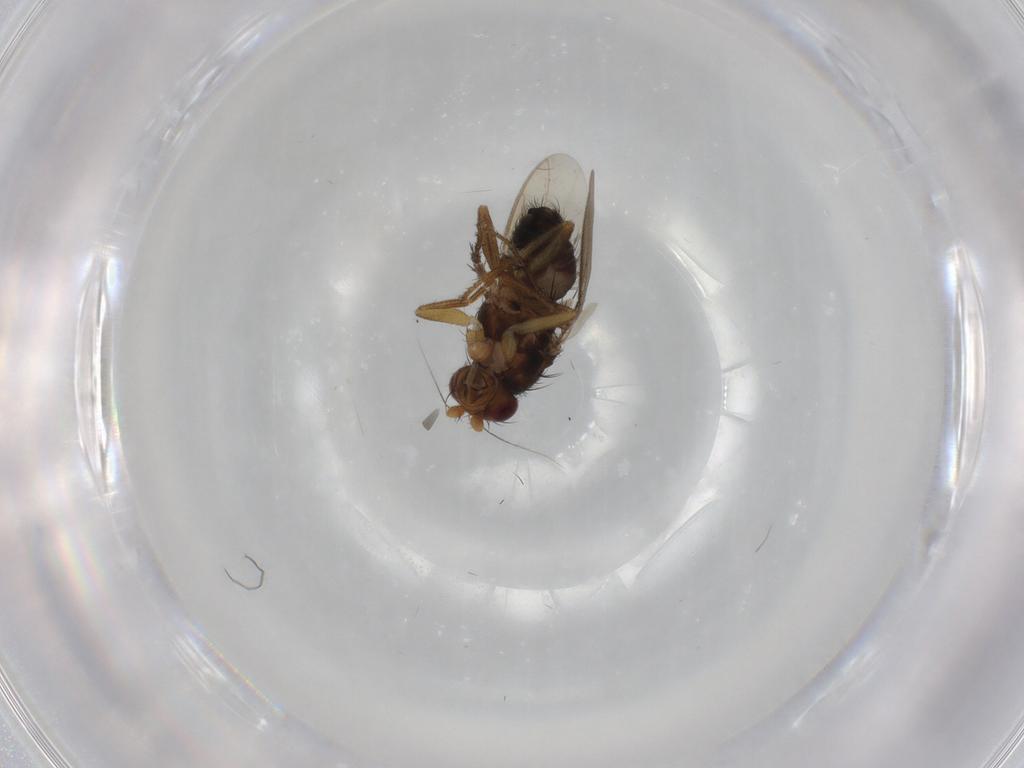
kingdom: Animalia
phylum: Arthropoda
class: Insecta
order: Diptera
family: Sphaeroceridae
